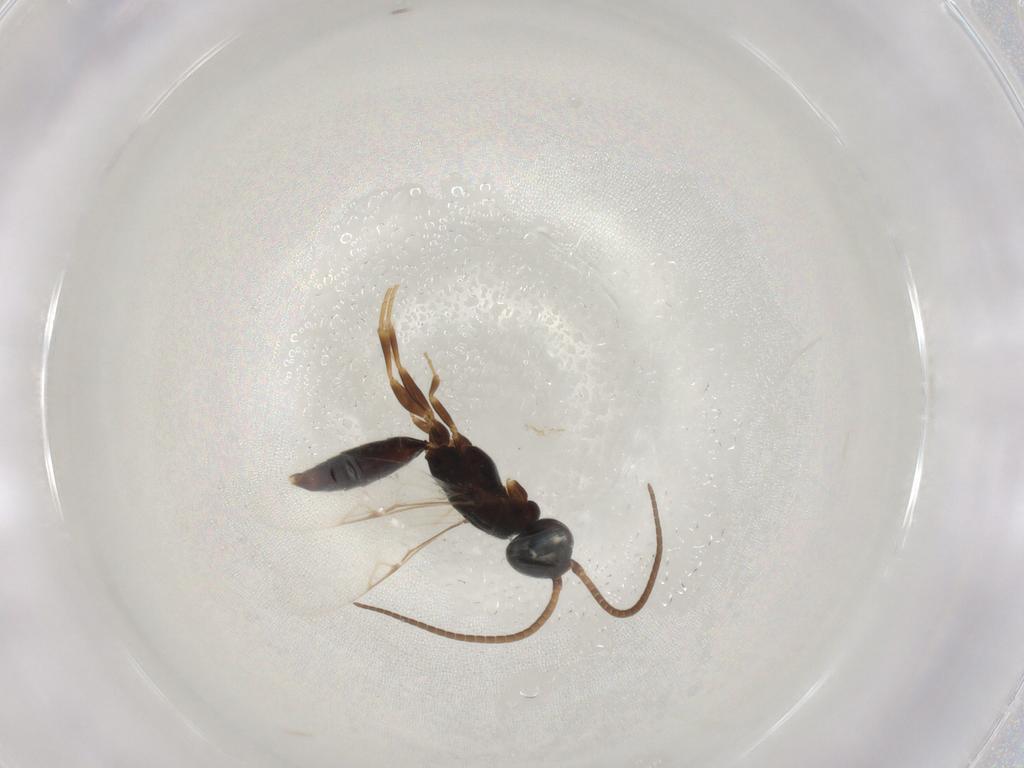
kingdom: Animalia
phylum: Arthropoda
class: Insecta
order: Hymenoptera
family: Sclerogibbidae
